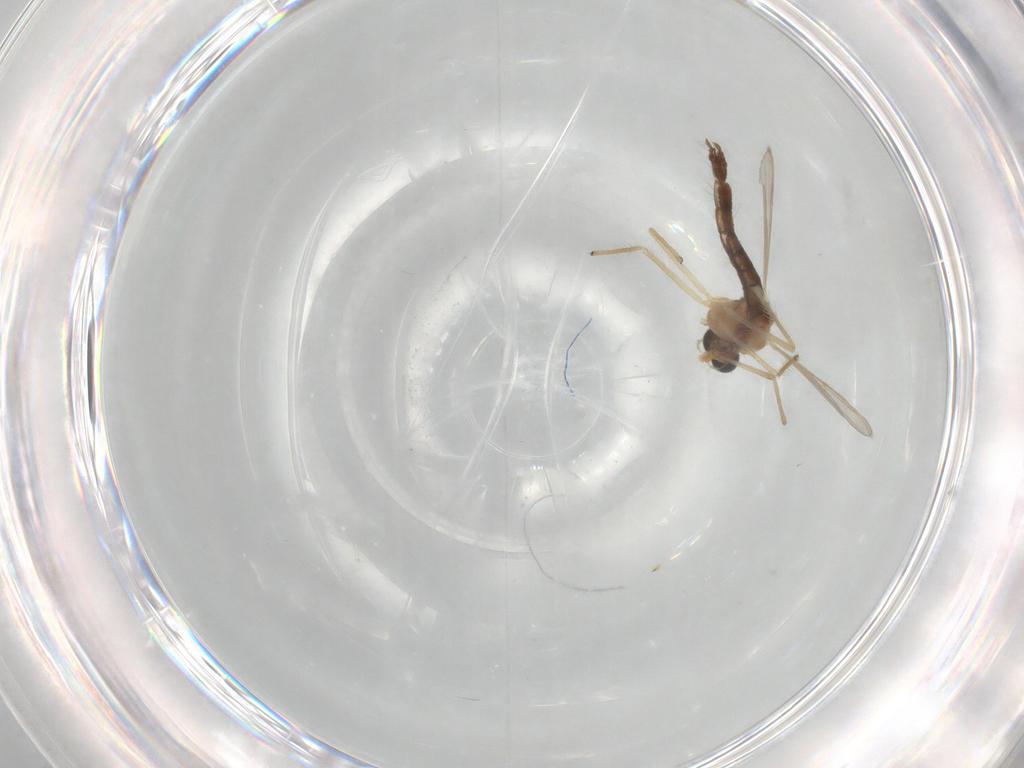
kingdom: Animalia
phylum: Arthropoda
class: Insecta
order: Diptera
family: Chironomidae
